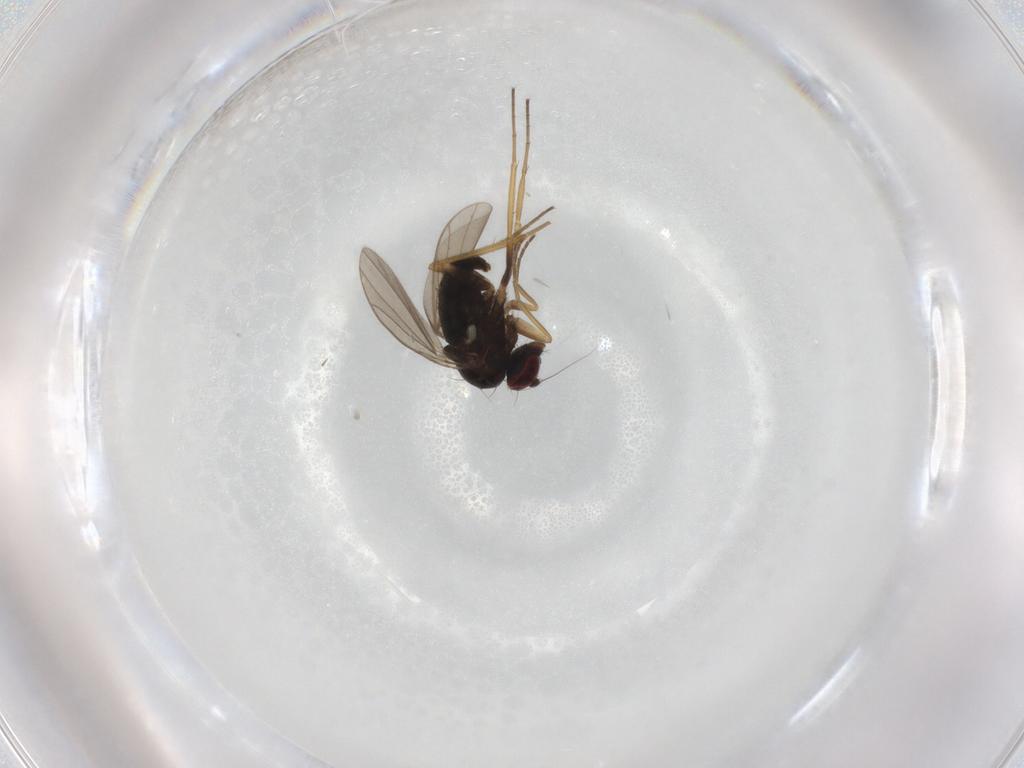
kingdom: Animalia
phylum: Arthropoda
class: Insecta
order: Diptera
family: Dolichopodidae
